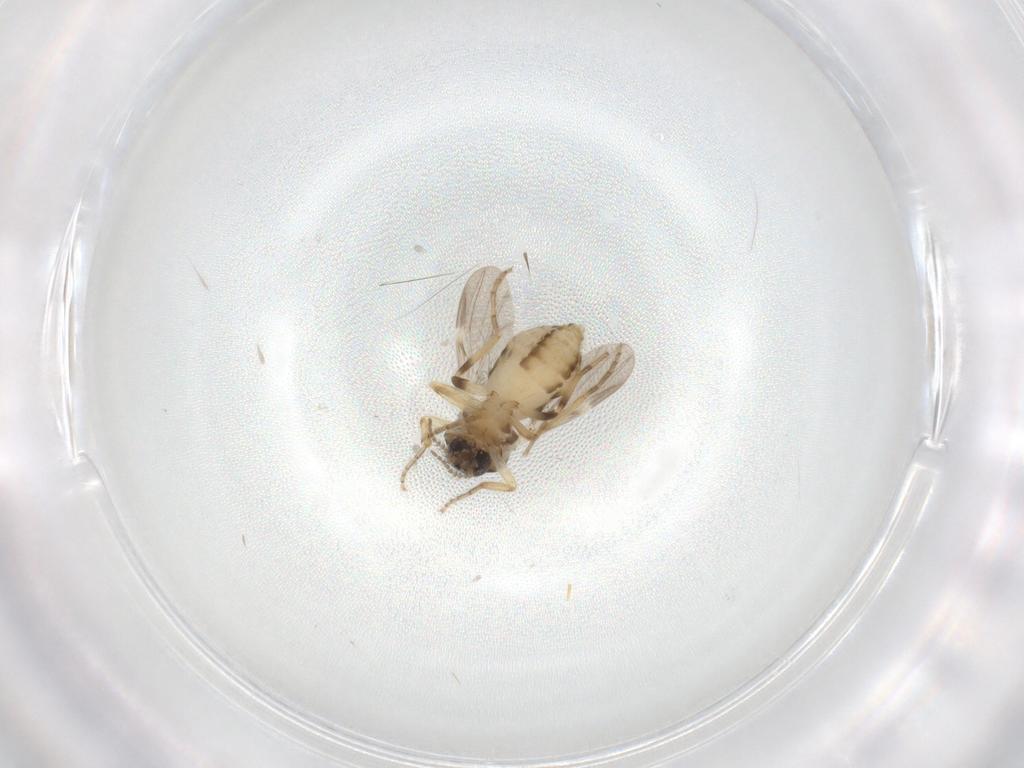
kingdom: Animalia
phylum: Arthropoda
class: Insecta
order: Diptera
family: Ceratopogonidae
